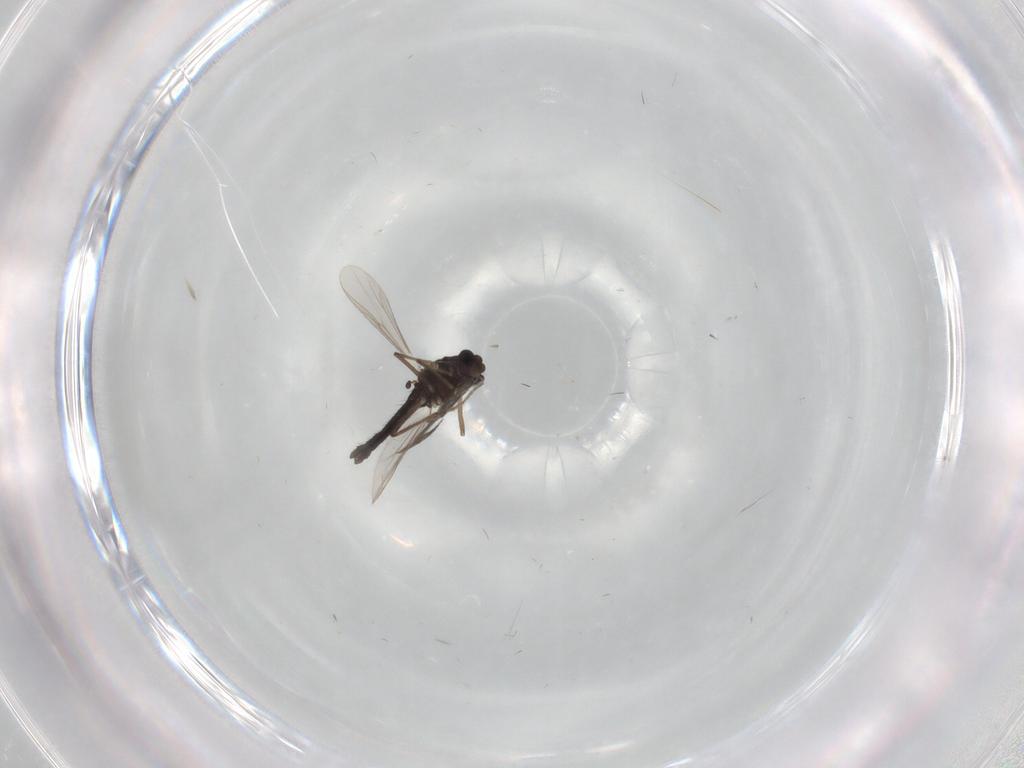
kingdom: Animalia
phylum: Arthropoda
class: Insecta
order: Diptera
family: Chironomidae
